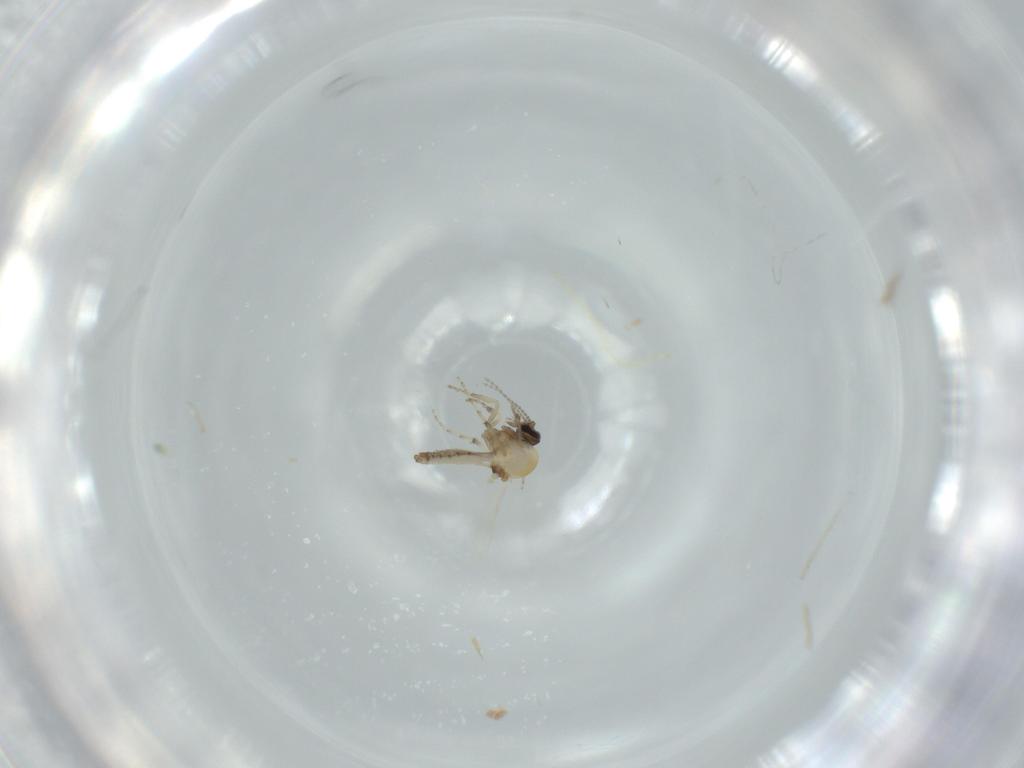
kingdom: Animalia
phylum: Arthropoda
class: Insecta
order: Diptera
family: Ceratopogonidae
